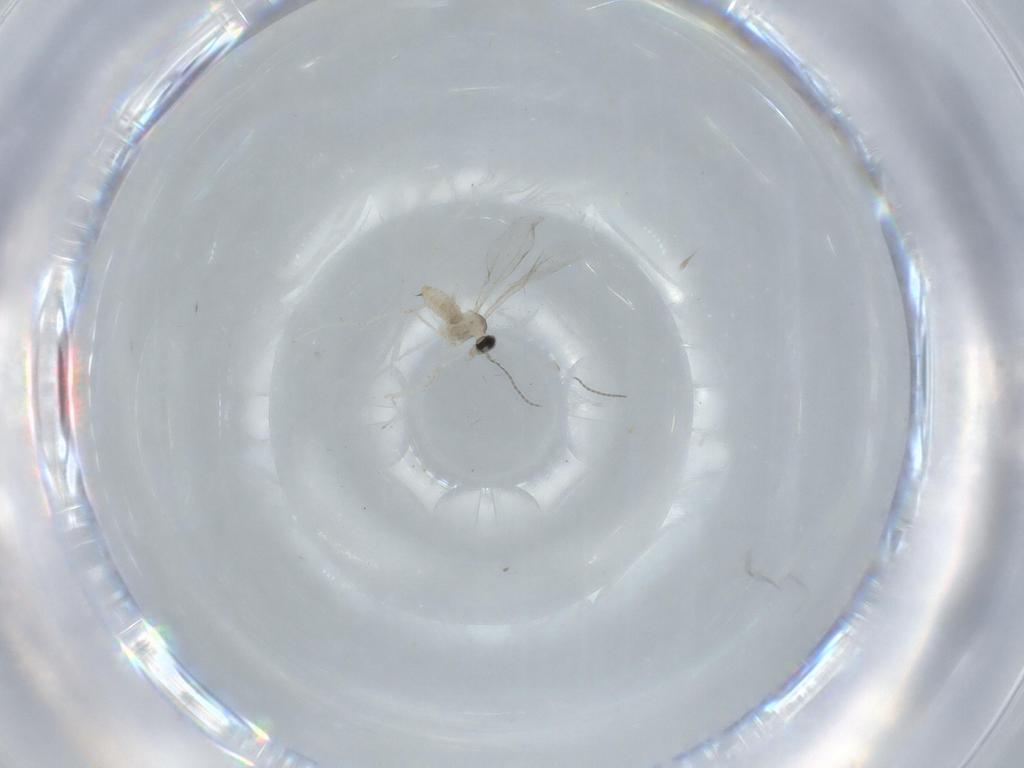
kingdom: Animalia
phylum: Arthropoda
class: Insecta
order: Diptera
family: Cecidomyiidae
